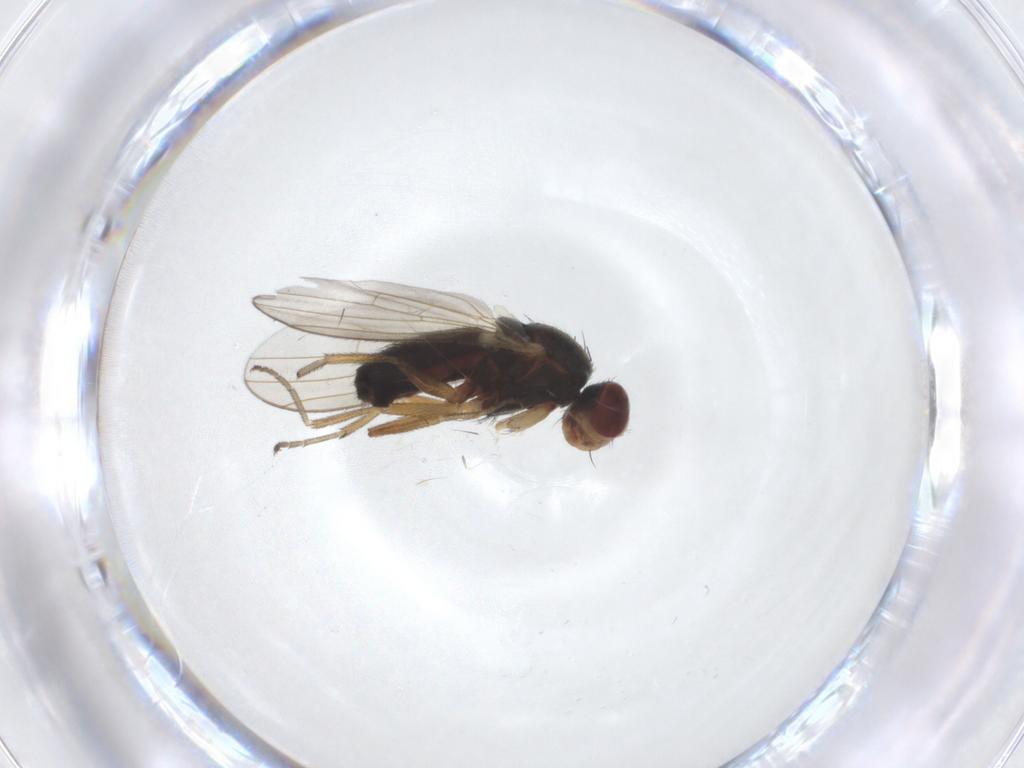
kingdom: Animalia
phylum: Arthropoda
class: Insecta
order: Diptera
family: Heleomyzidae
